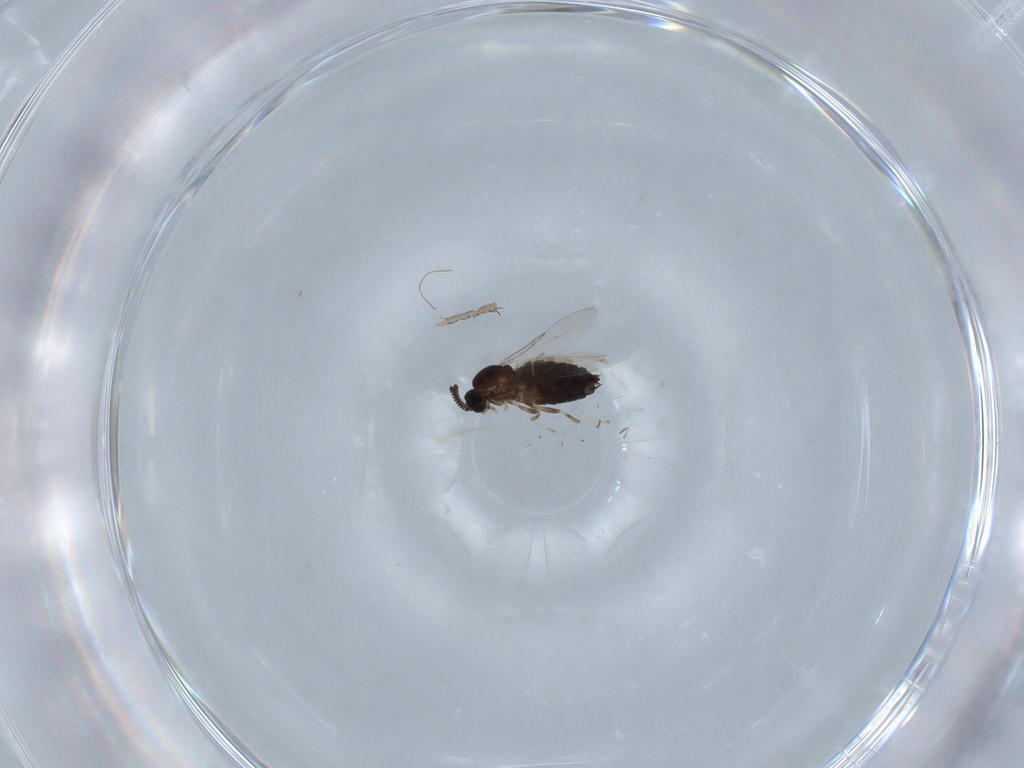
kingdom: Animalia
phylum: Arthropoda
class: Insecta
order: Diptera
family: Scatopsidae
